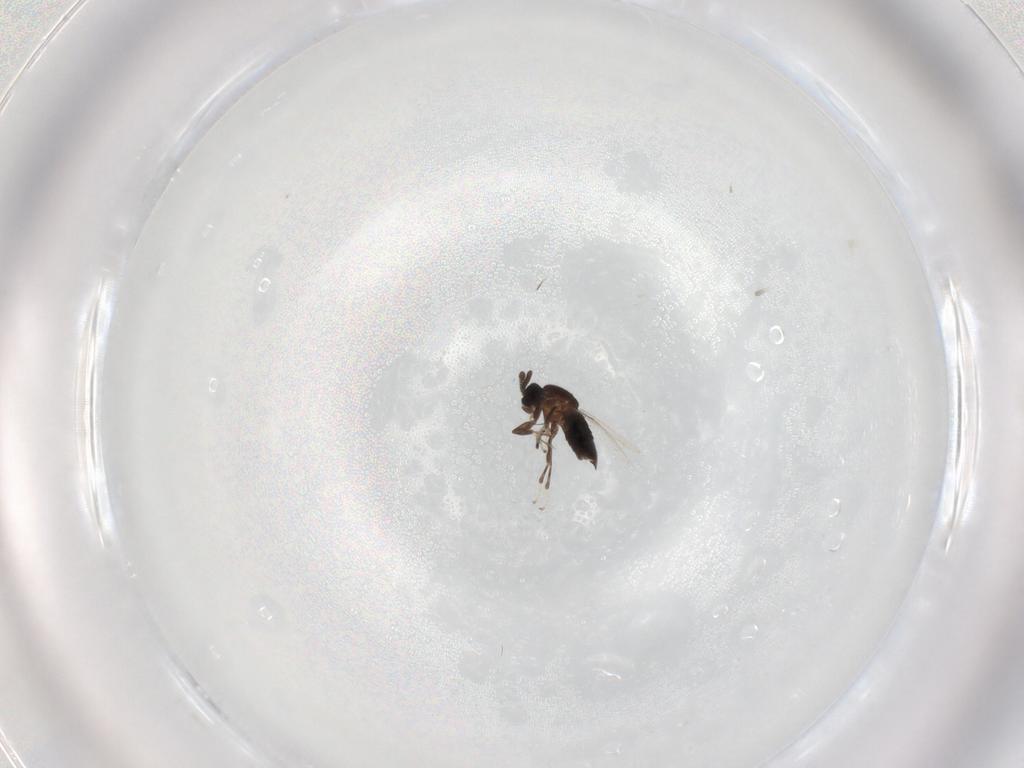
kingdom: Animalia
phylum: Arthropoda
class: Insecta
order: Diptera
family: Scatopsidae
